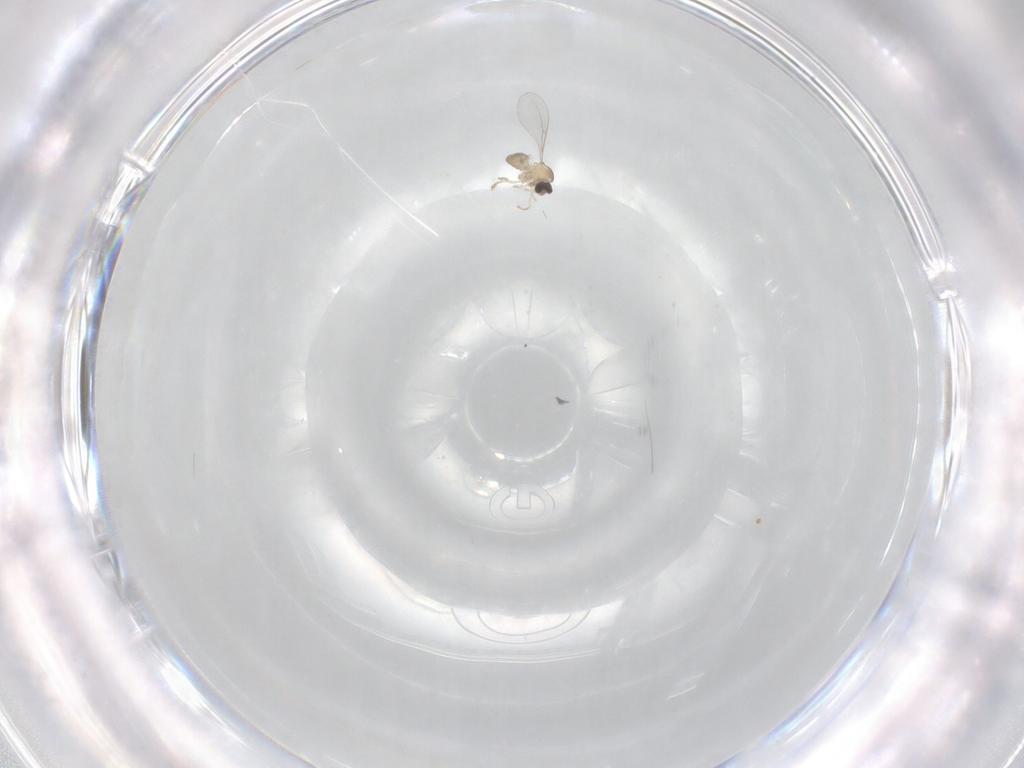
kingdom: Animalia
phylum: Arthropoda
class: Insecta
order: Diptera
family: Cecidomyiidae
